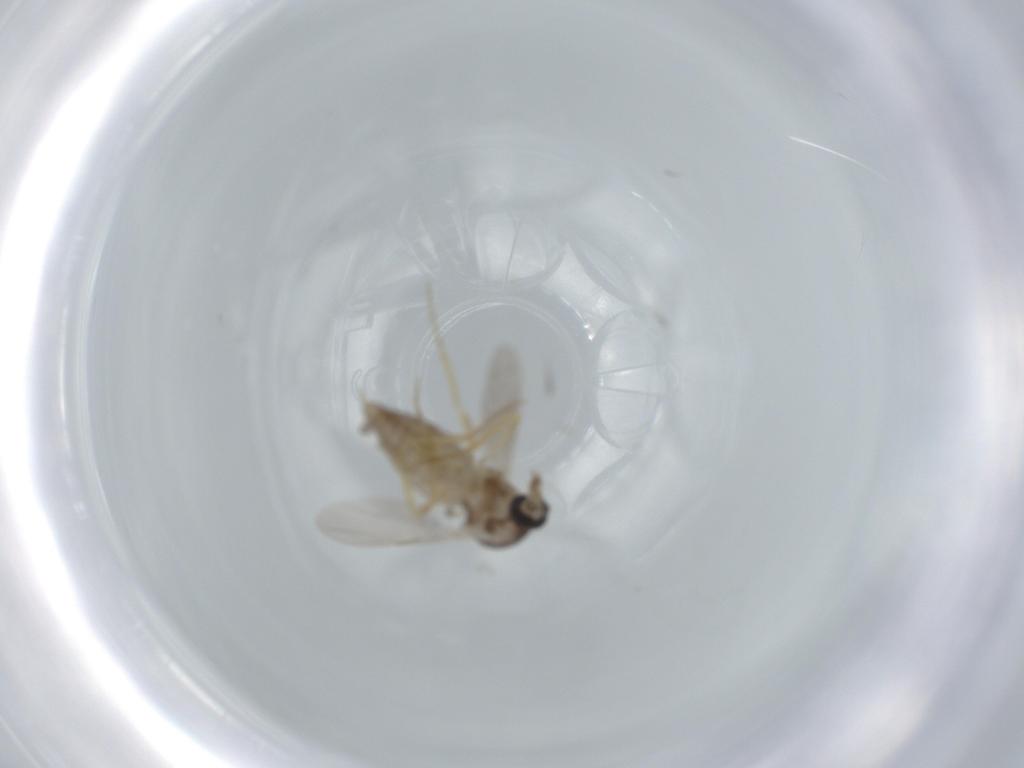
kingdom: Animalia
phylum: Arthropoda
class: Insecta
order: Diptera
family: Ceratopogonidae
